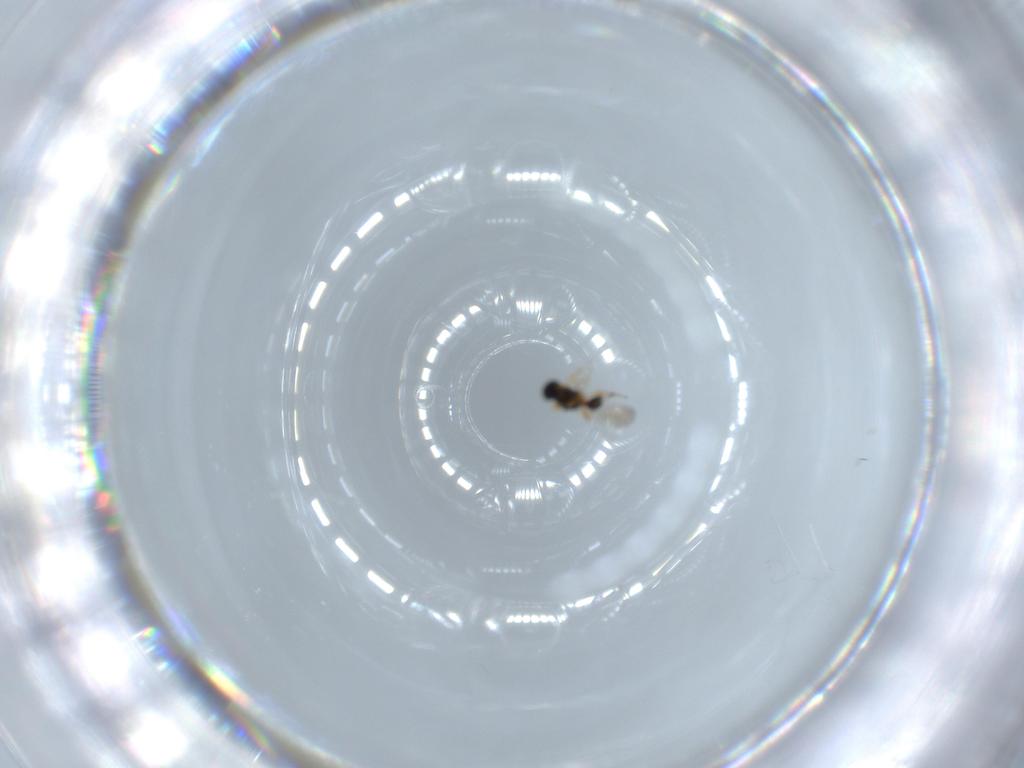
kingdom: Animalia
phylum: Arthropoda
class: Insecta
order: Hymenoptera
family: Platygastridae
